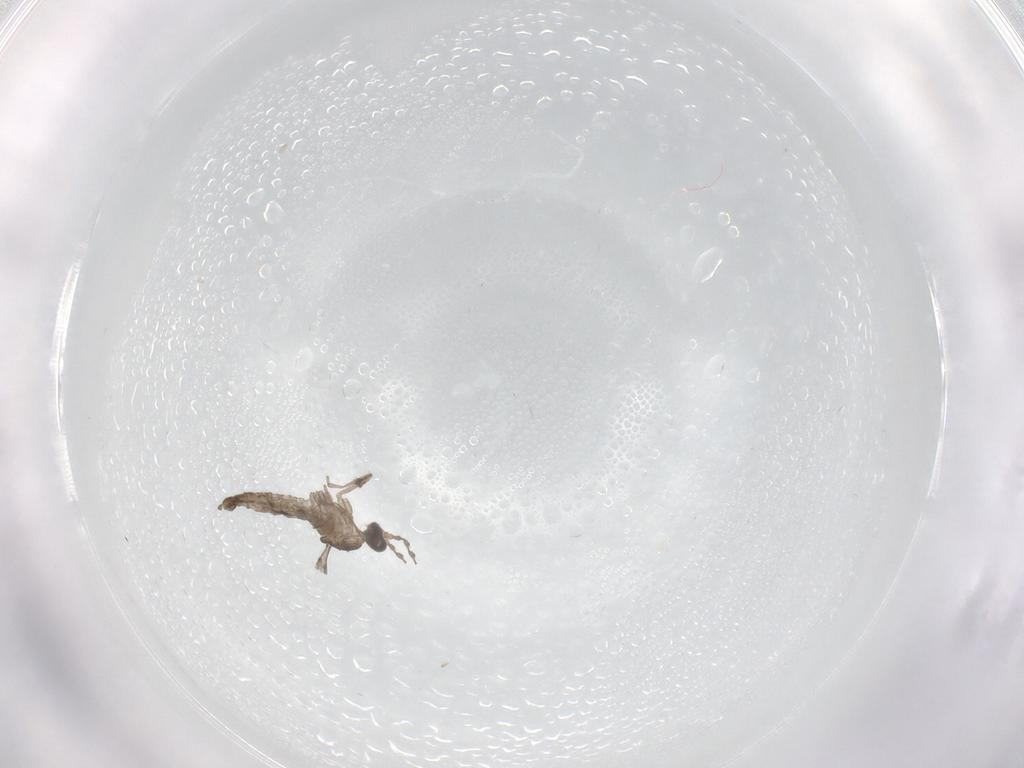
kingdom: Animalia
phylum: Arthropoda
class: Insecta
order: Diptera
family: Chironomidae
